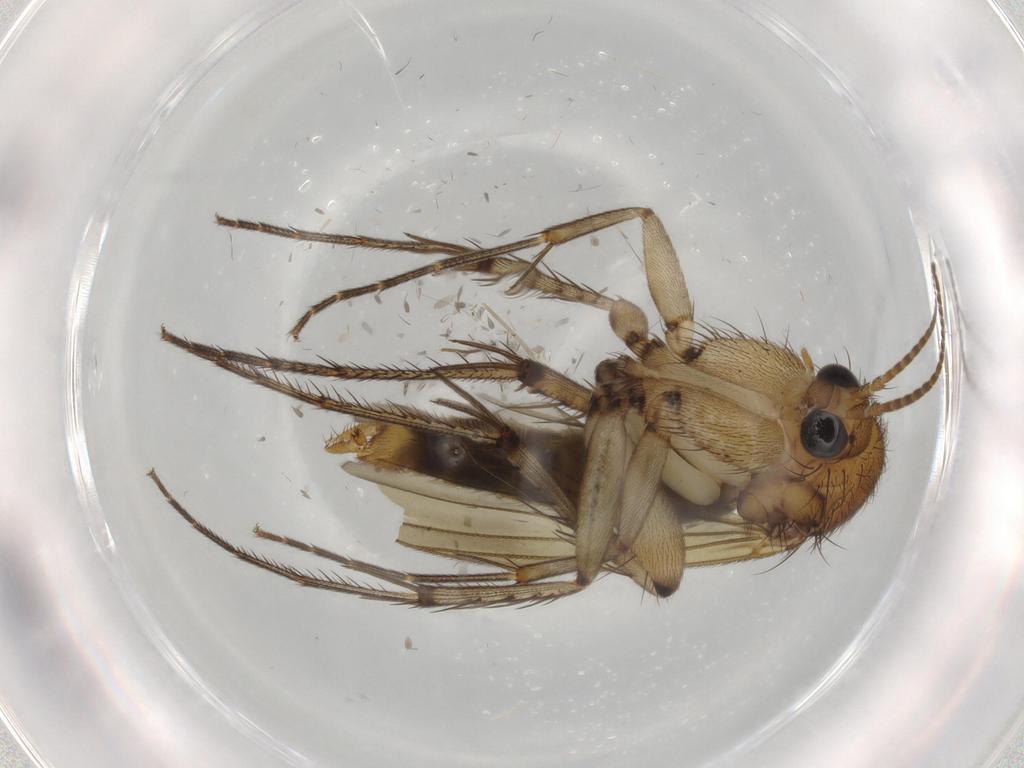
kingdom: Animalia
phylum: Arthropoda
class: Insecta
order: Diptera
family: Cecidomyiidae
